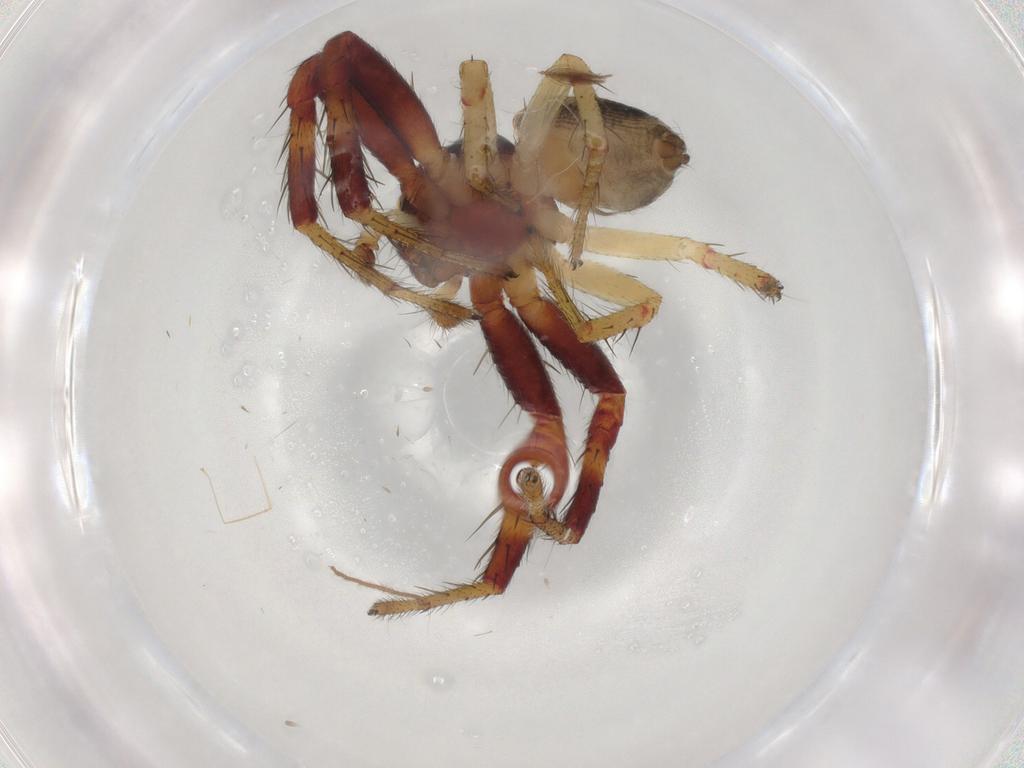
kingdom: Animalia
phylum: Arthropoda
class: Arachnida
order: Araneae
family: Thomisidae
